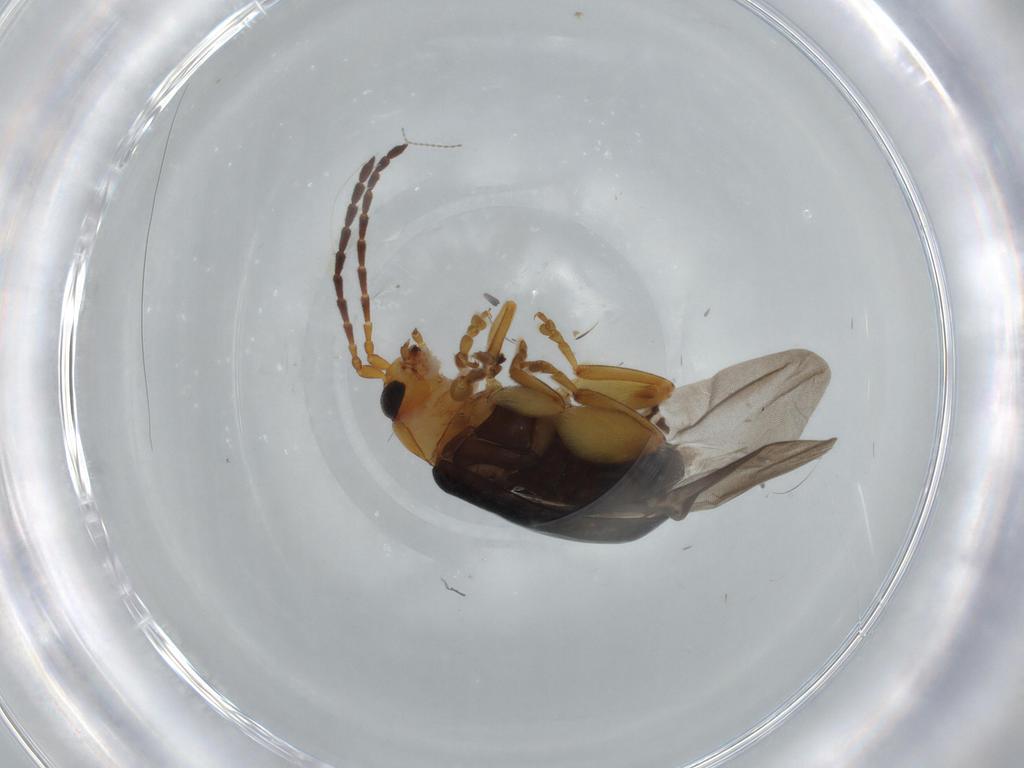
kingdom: Animalia
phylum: Arthropoda
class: Insecta
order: Coleoptera
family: Chrysomelidae
